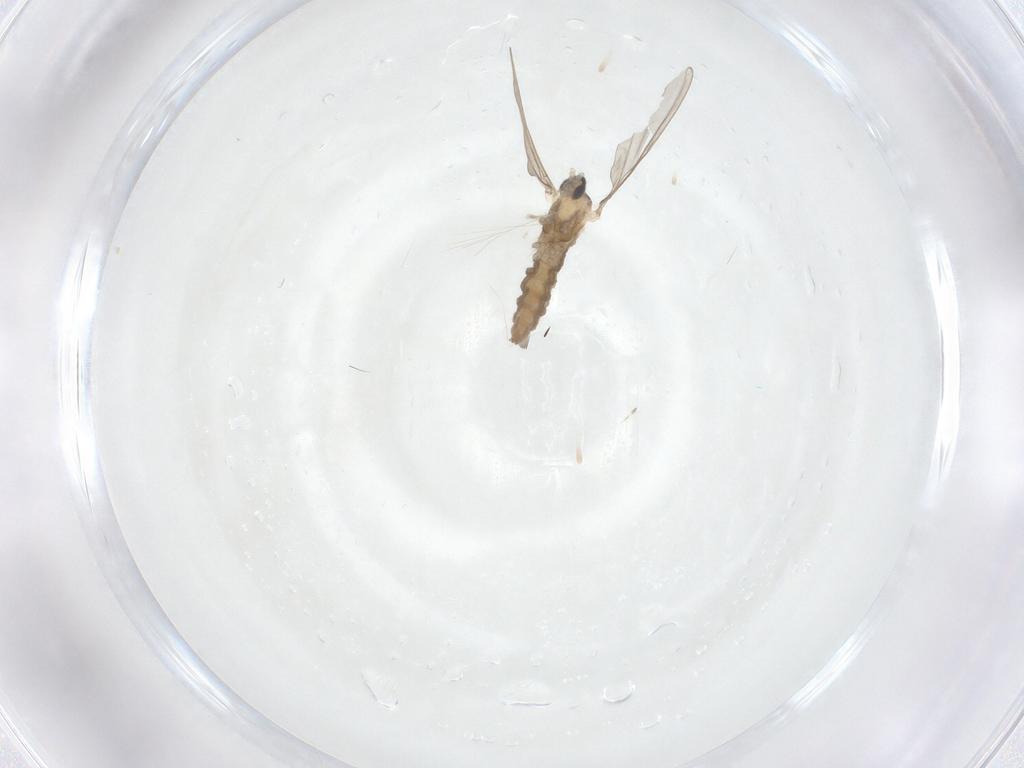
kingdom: Animalia
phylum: Arthropoda
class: Insecta
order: Diptera
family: Cecidomyiidae
